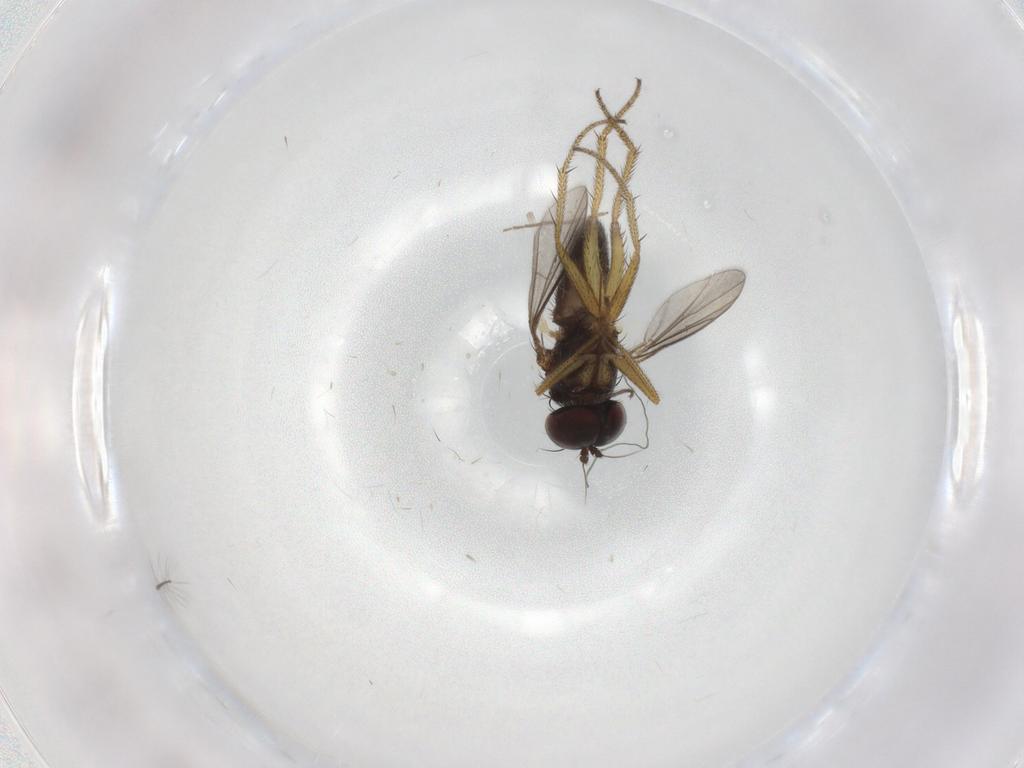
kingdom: Animalia
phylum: Arthropoda
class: Insecta
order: Diptera
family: Chironomidae
